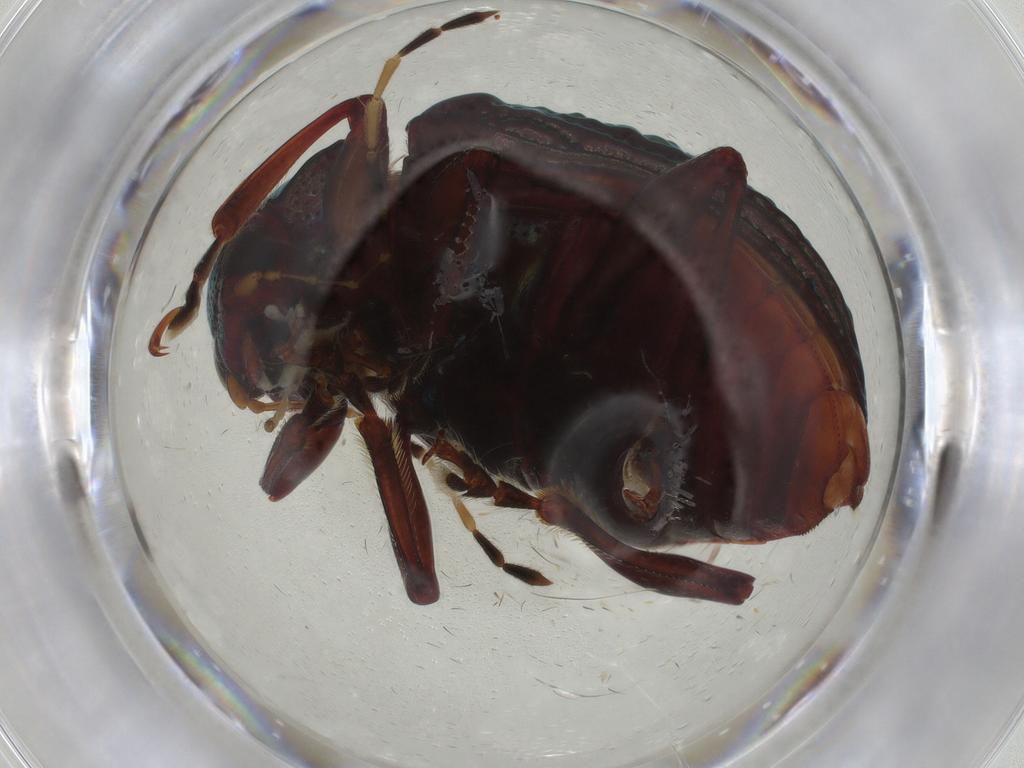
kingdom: Animalia
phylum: Arthropoda
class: Insecta
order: Coleoptera
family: Chrysomelidae
